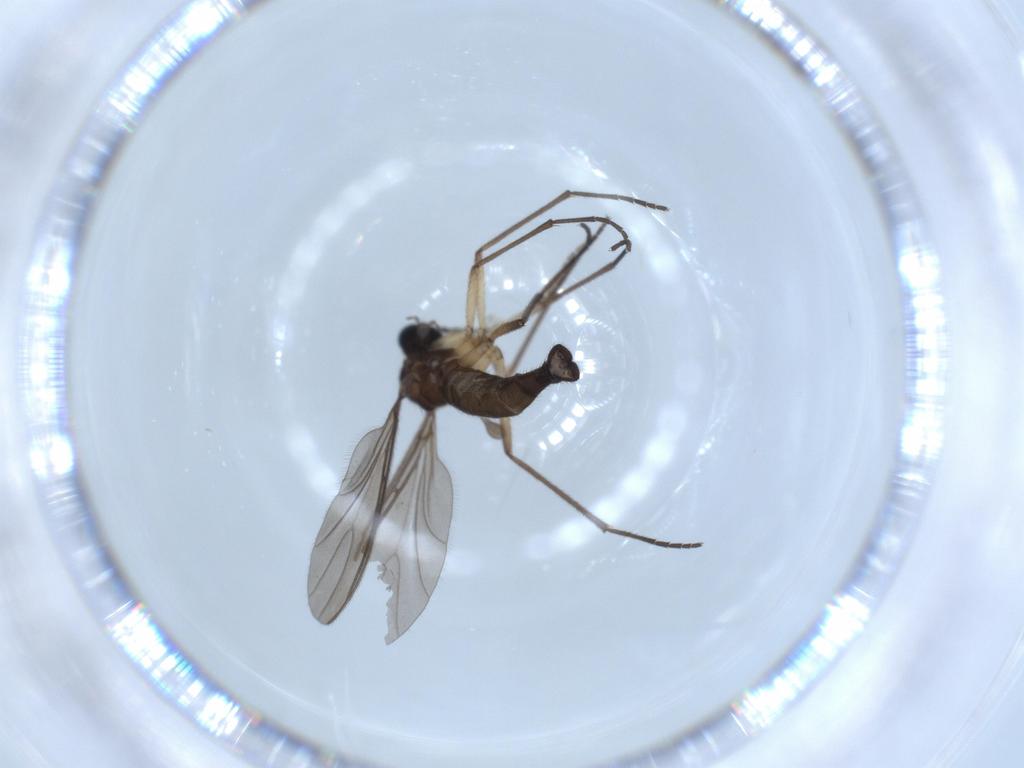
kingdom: Animalia
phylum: Arthropoda
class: Insecta
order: Diptera
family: Sciaridae
